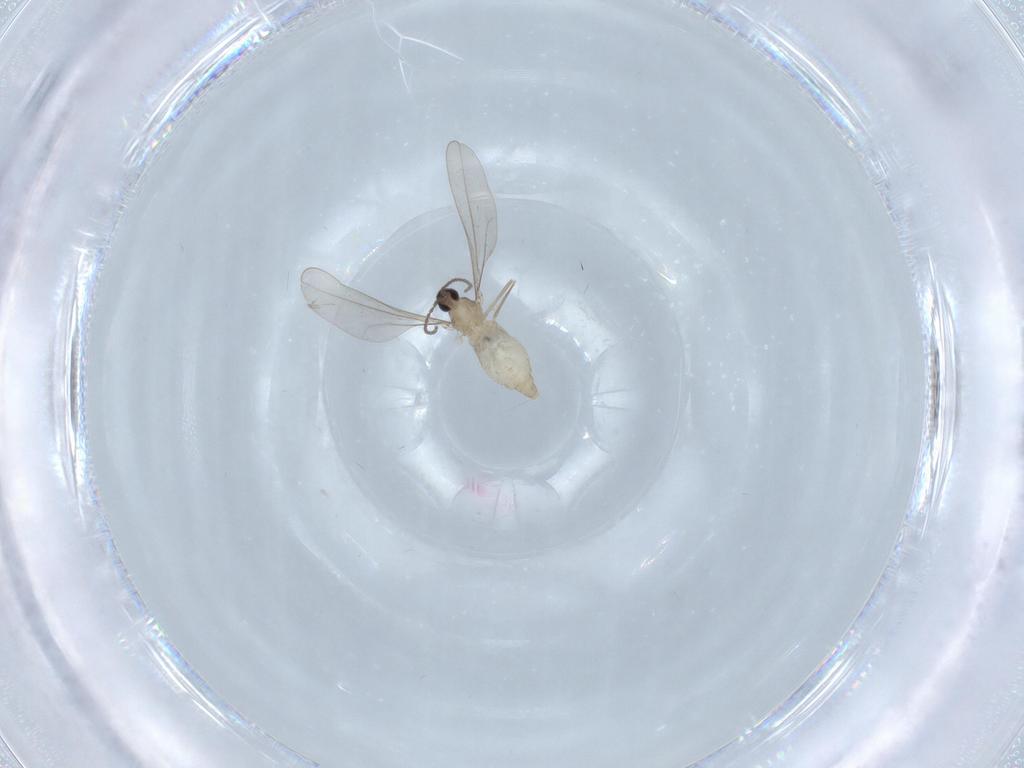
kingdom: Animalia
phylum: Arthropoda
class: Insecta
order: Diptera
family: Cecidomyiidae
